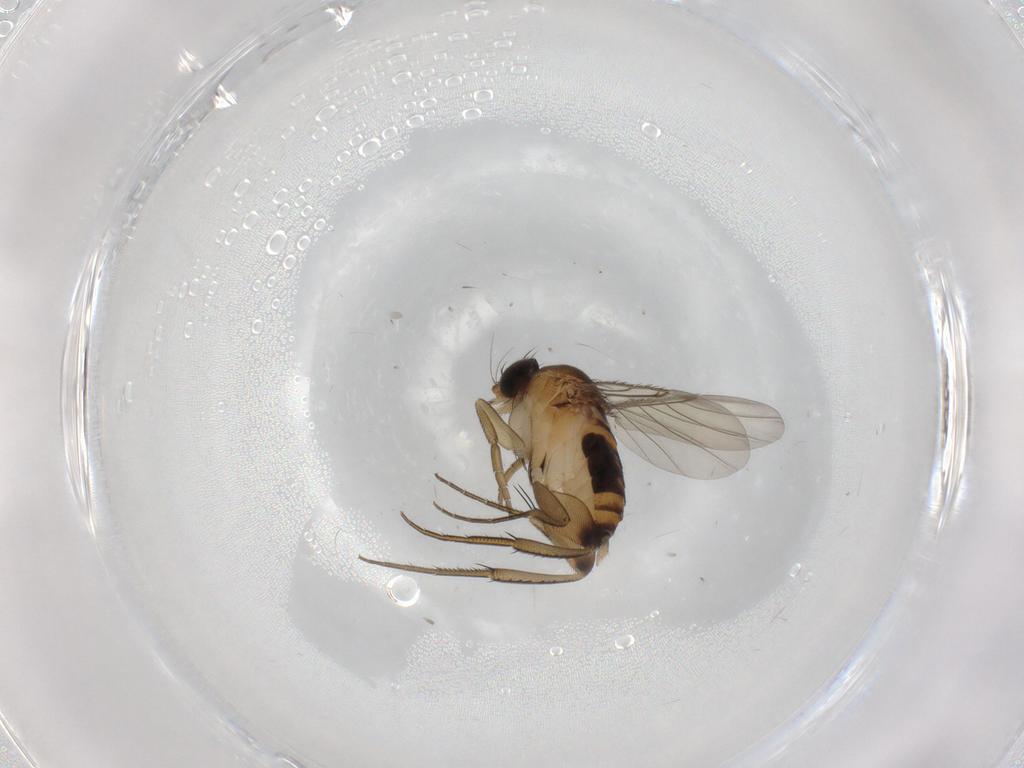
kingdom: Animalia
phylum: Arthropoda
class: Insecta
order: Diptera
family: Phoridae
